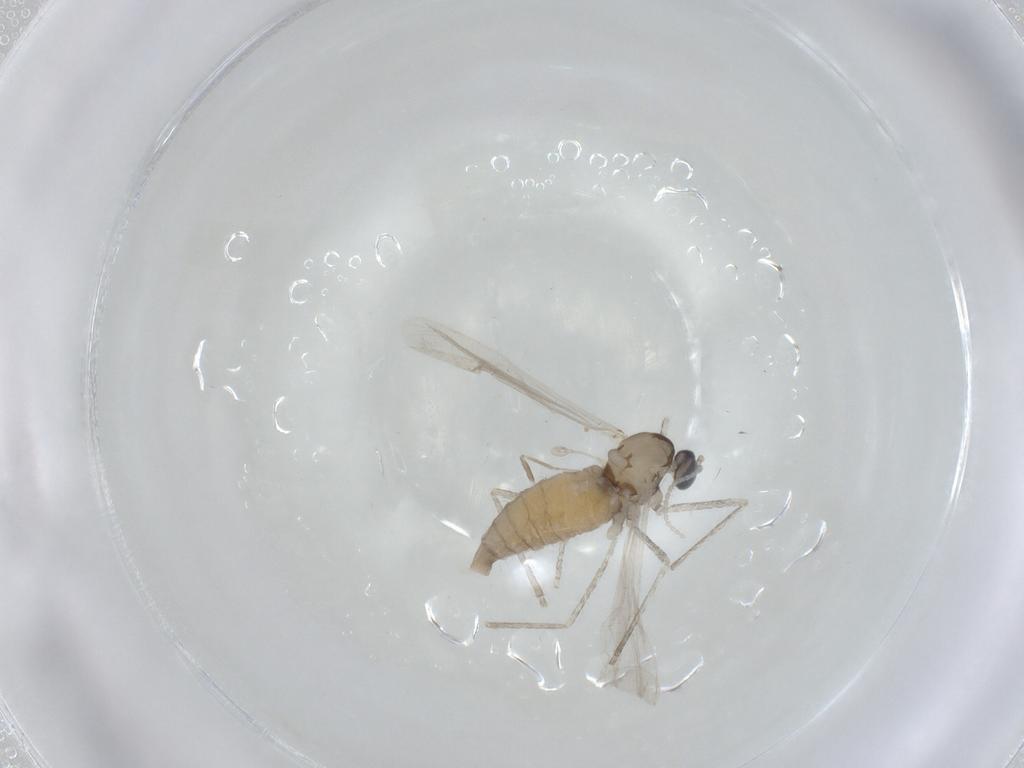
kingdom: Animalia
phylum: Arthropoda
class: Insecta
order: Diptera
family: Cecidomyiidae
